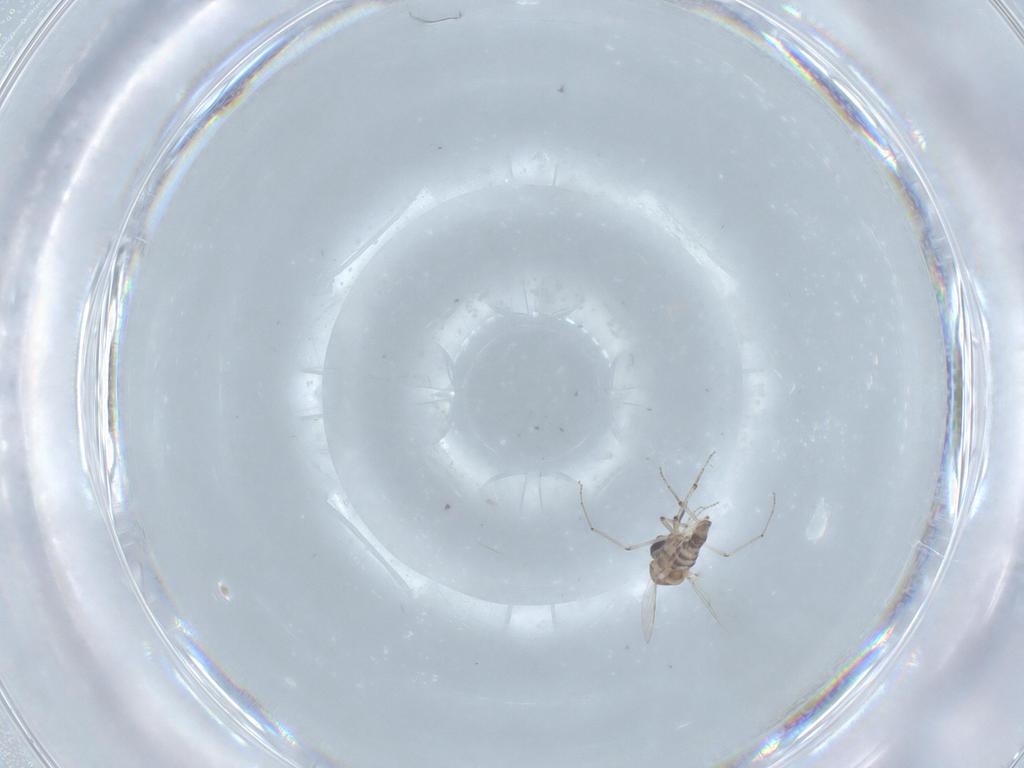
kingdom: Animalia
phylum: Arthropoda
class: Insecta
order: Diptera
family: Ceratopogonidae
